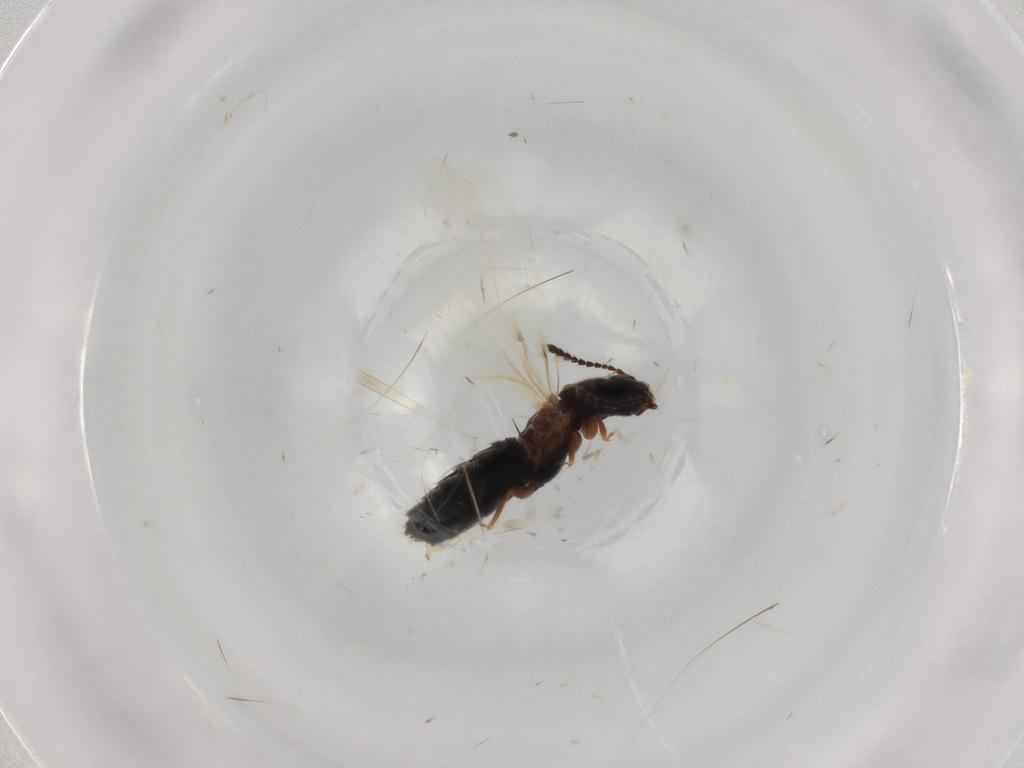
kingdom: Animalia
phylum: Arthropoda
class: Insecta
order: Coleoptera
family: Staphylinidae
